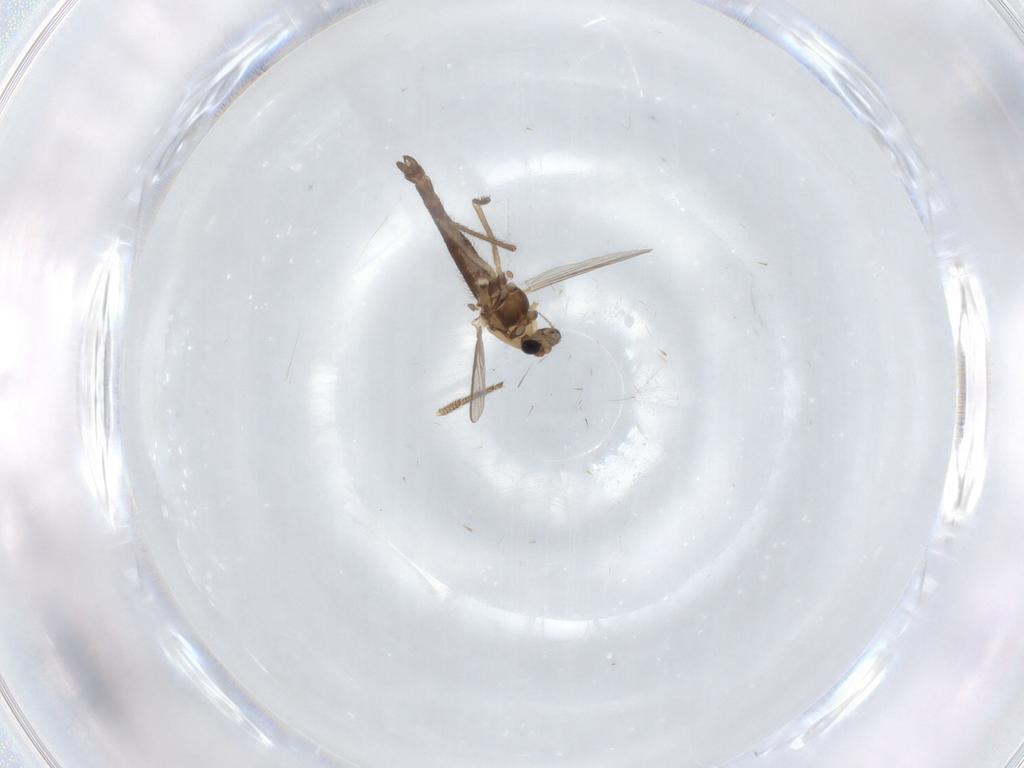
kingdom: Animalia
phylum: Arthropoda
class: Insecta
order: Diptera
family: Chironomidae
